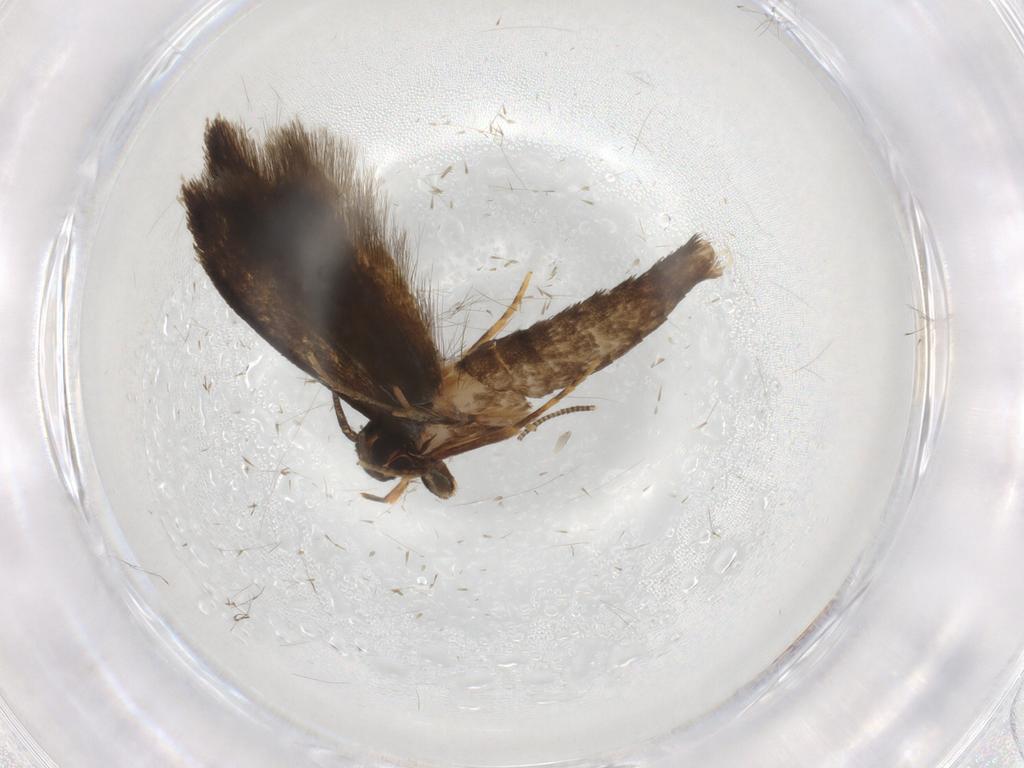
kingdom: Animalia
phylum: Arthropoda
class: Insecta
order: Lepidoptera
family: Tineidae
